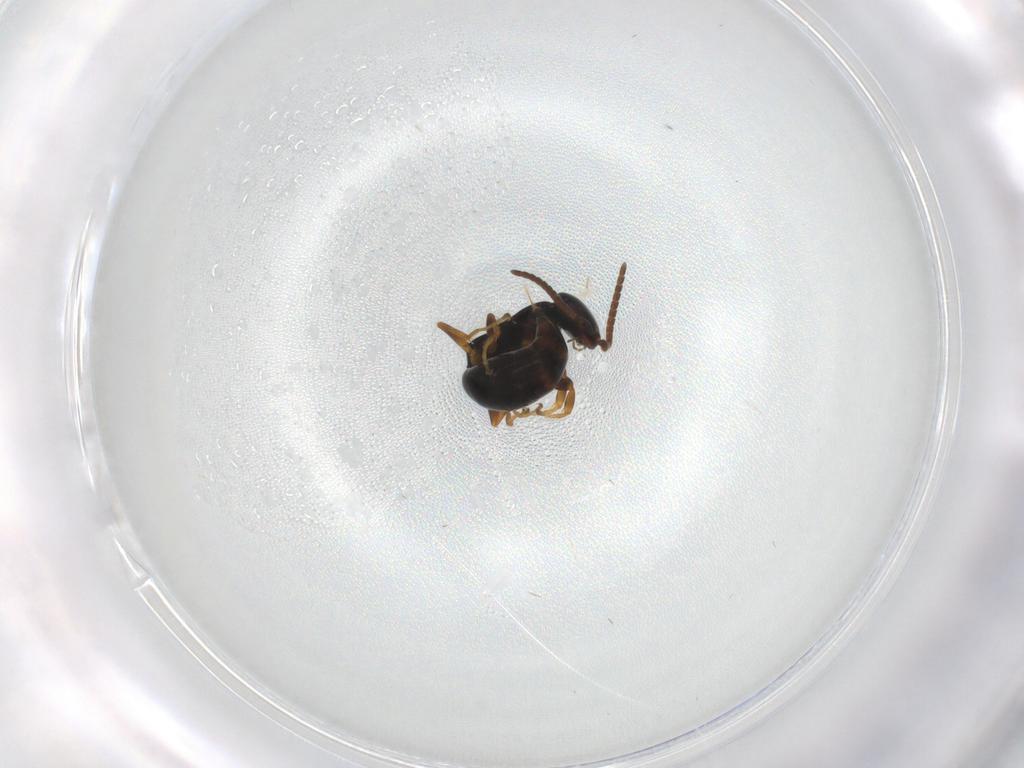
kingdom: Animalia
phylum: Arthropoda
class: Insecta
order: Hymenoptera
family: Bethylidae
